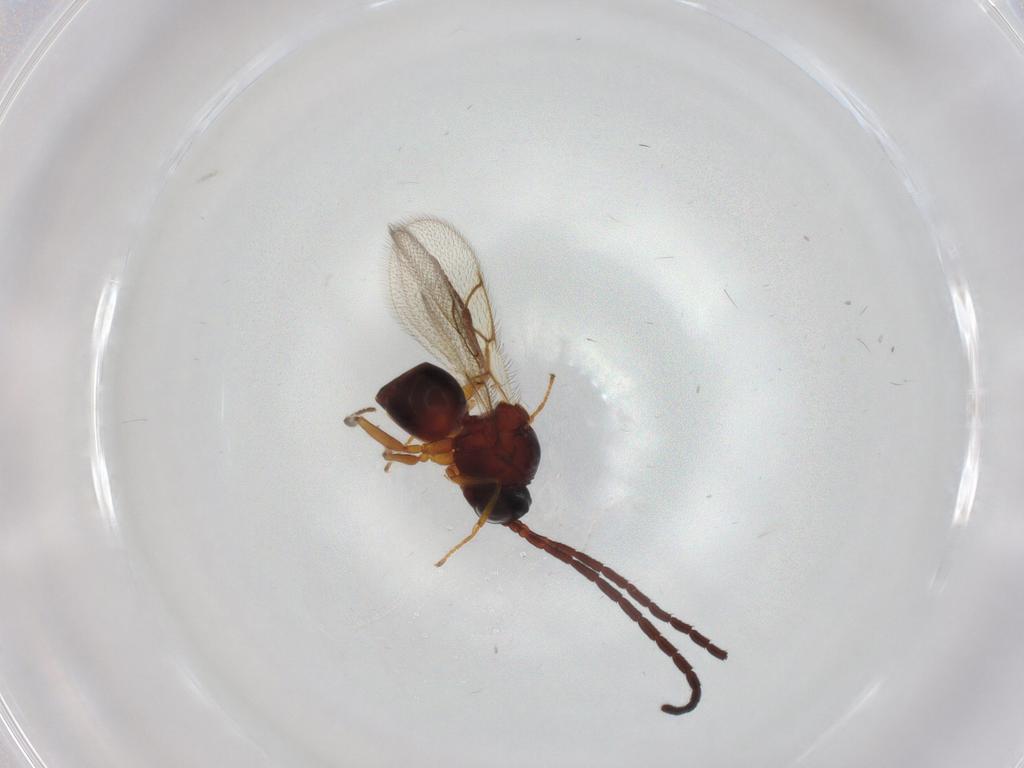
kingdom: Animalia
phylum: Arthropoda
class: Insecta
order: Hymenoptera
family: Figitidae
